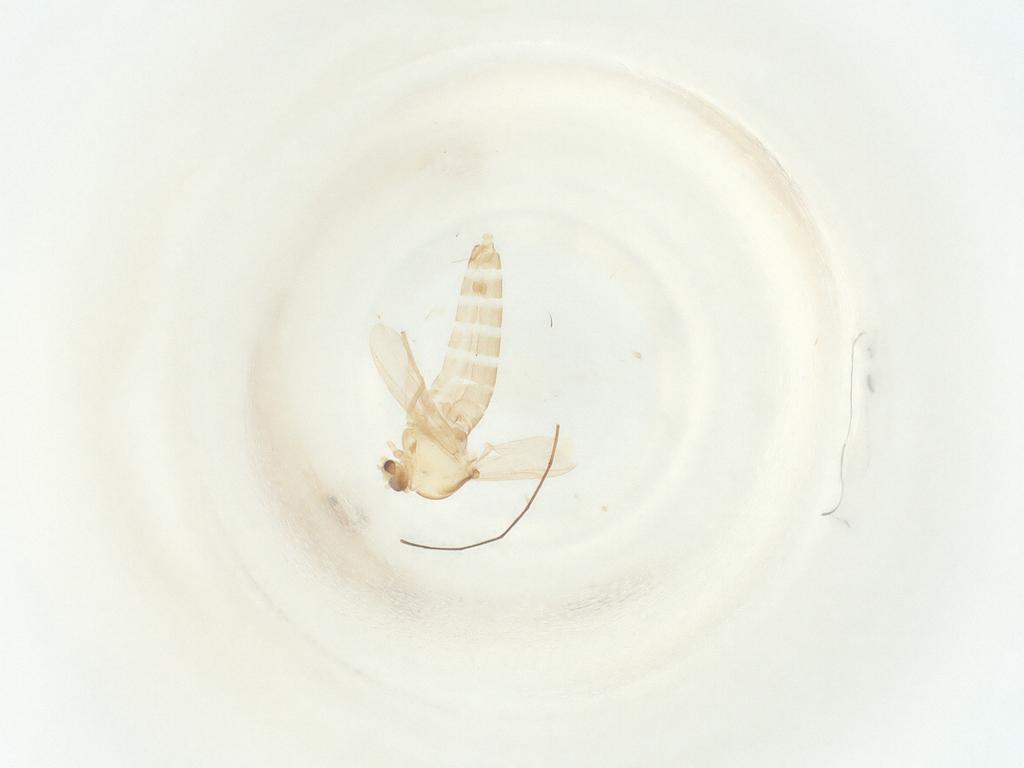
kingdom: Animalia
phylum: Arthropoda
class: Insecta
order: Diptera
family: Chironomidae
